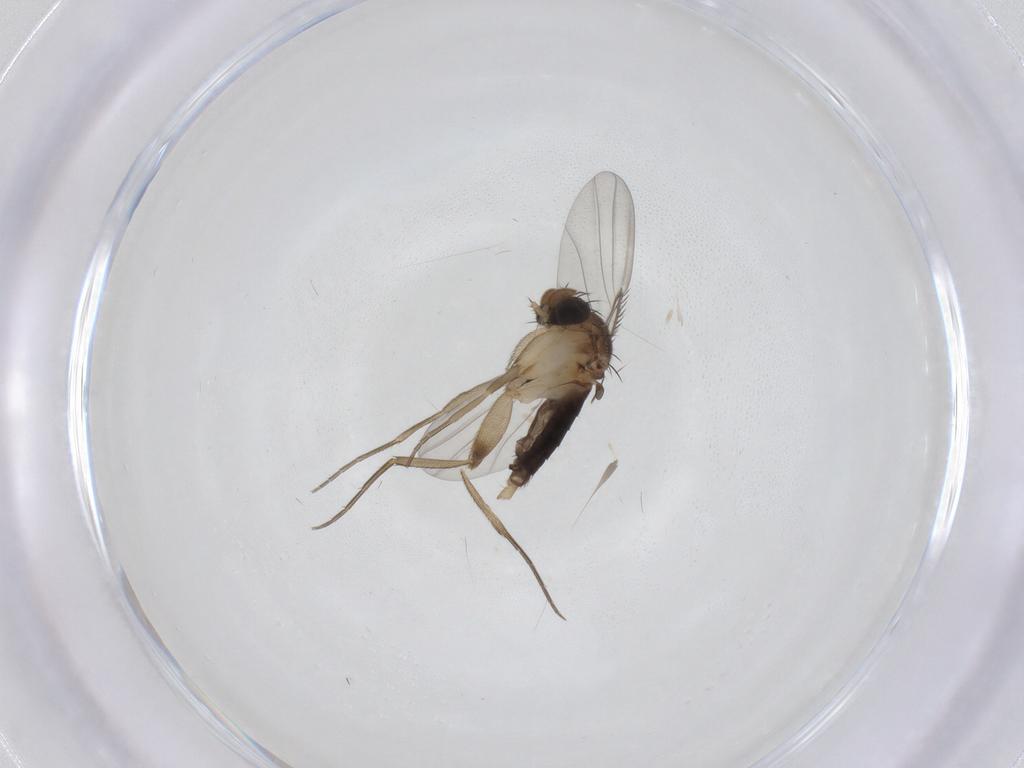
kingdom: Animalia
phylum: Arthropoda
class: Insecta
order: Diptera
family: Phoridae
